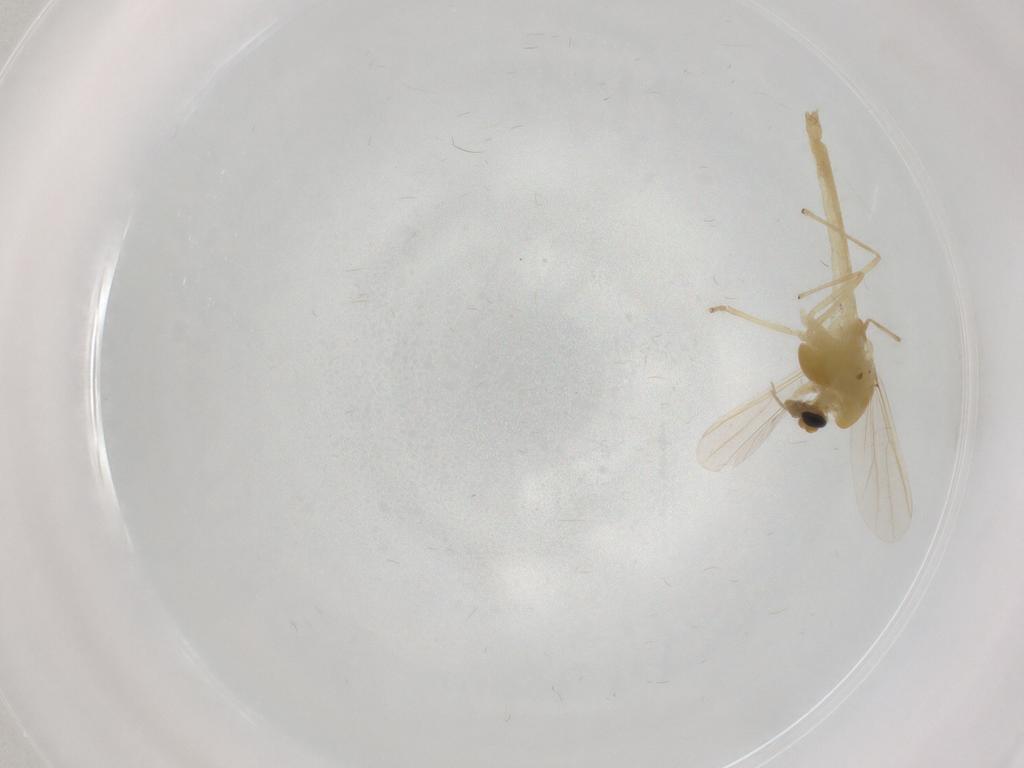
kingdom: Animalia
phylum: Arthropoda
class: Insecta
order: Diptera
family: Chironomidae
